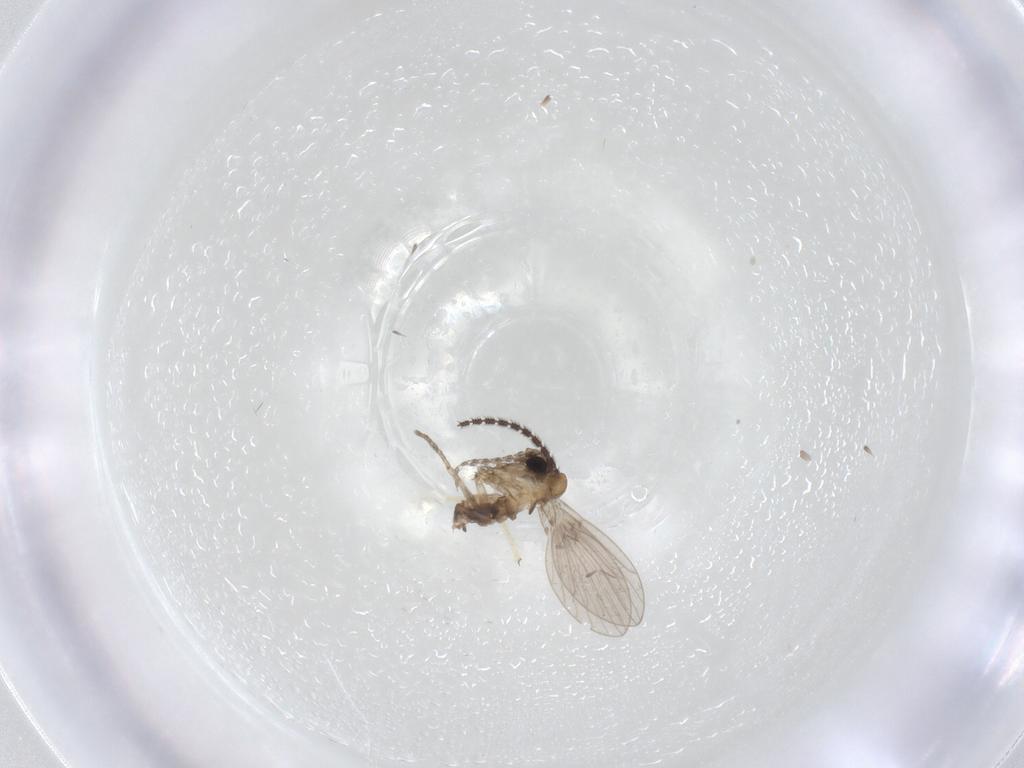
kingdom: Animalia
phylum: Arthropoda
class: Insecta
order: Diptera
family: Sciaridae
